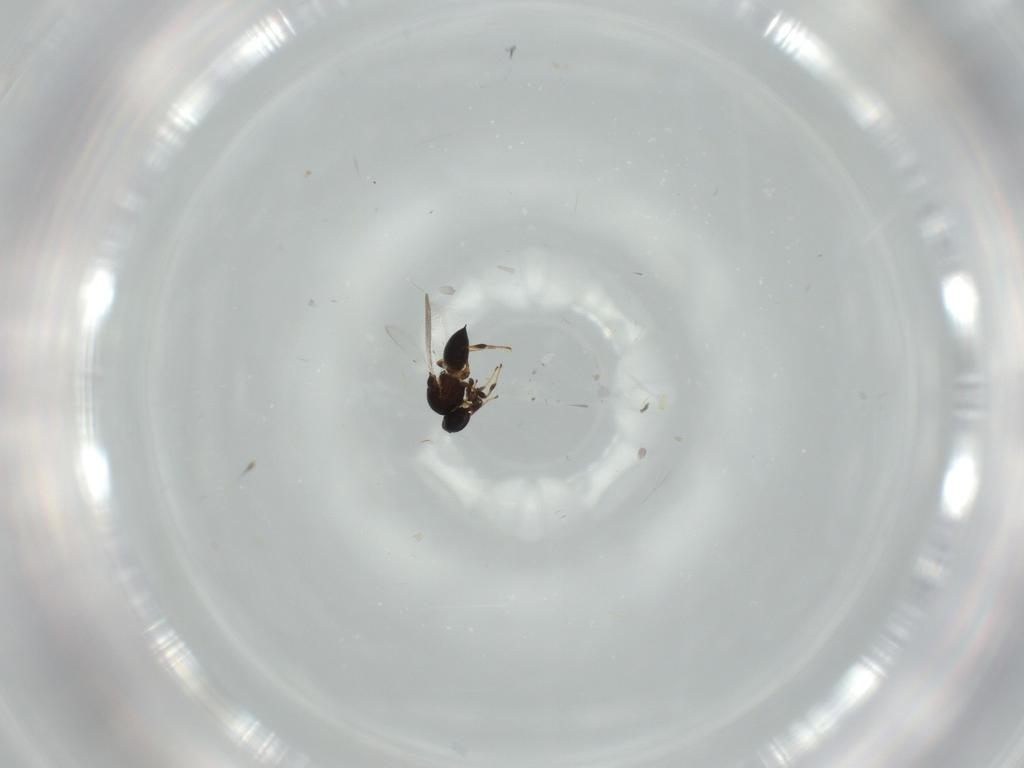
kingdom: Animalia
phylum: Arthropoda
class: Insecta
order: Hymenoptera
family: Platygastridae
